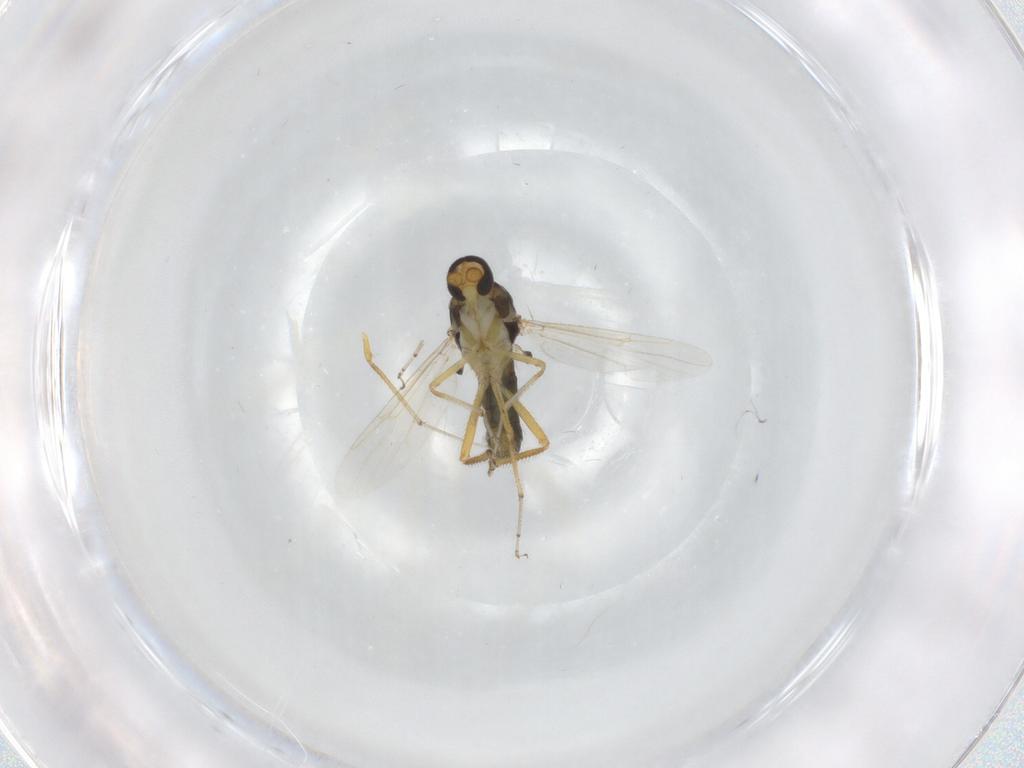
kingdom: Animalia
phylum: Arthropoda
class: Insecta
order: Diptera
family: Ceratopogonidae
